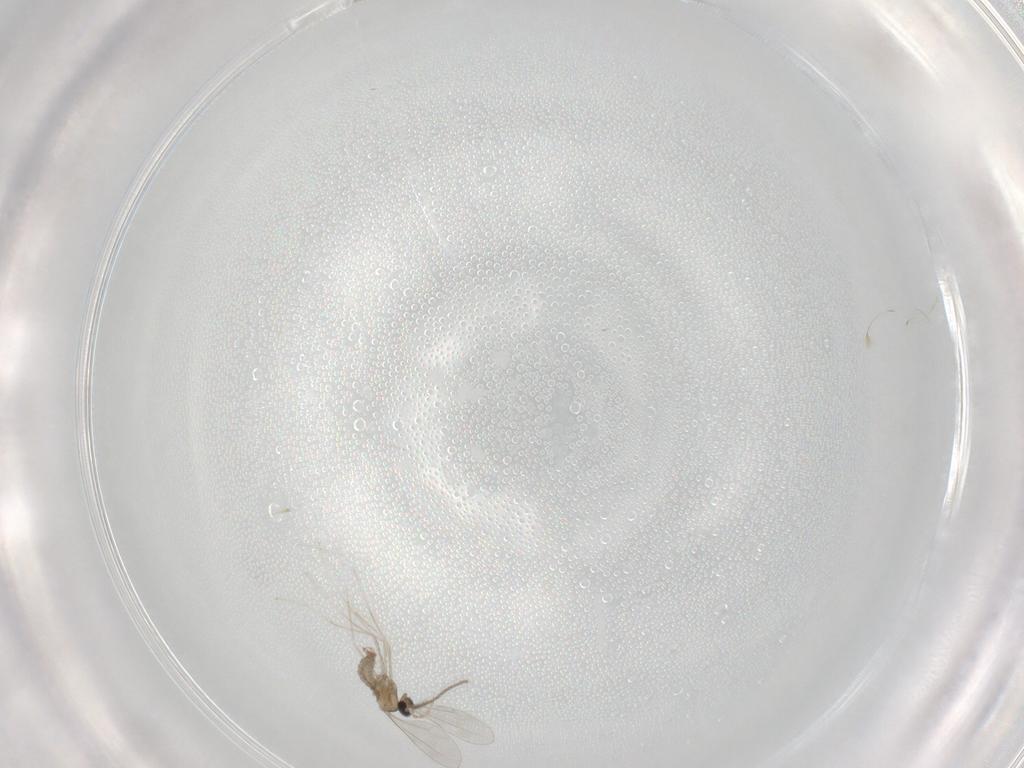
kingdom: Animalia
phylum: Arthropoda
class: Insecta
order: Diptera
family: Cecidomyiidae
